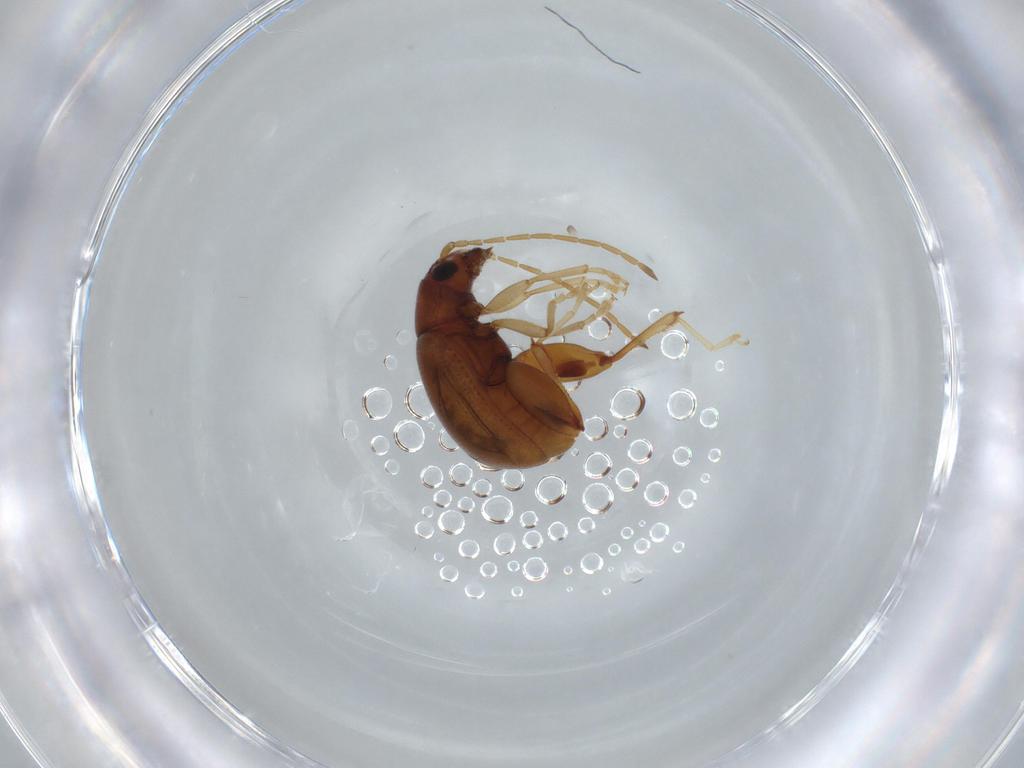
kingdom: Animalia
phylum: Arthropoda
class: Insecta
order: Coleoptera
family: Chrysomelidae
